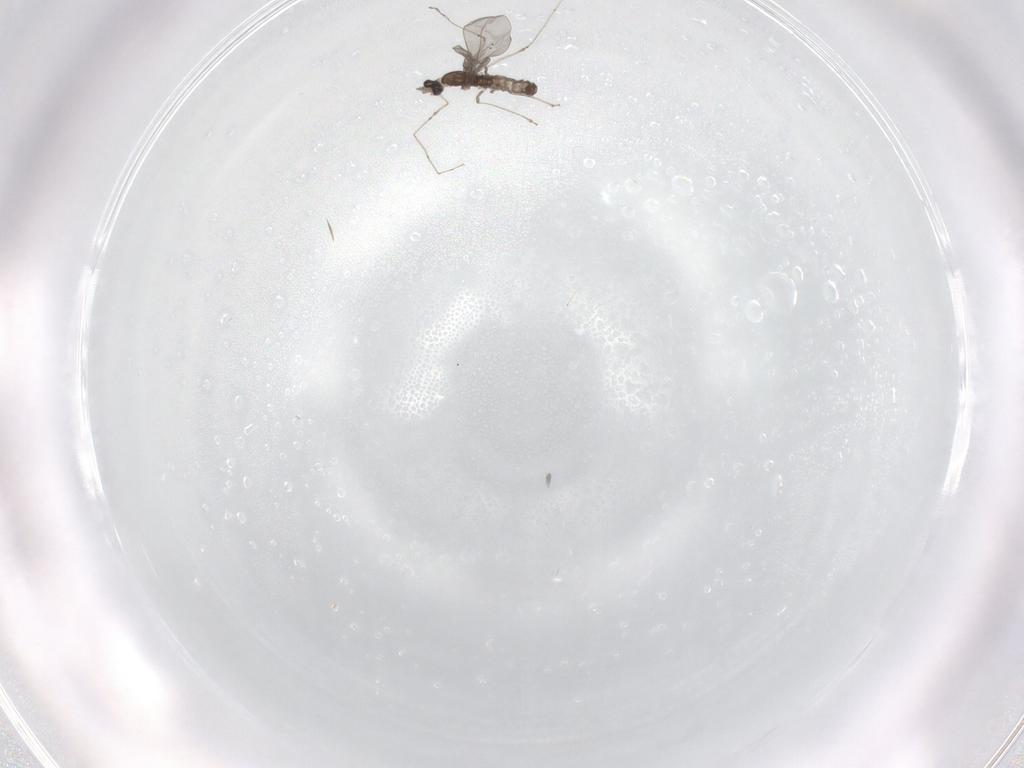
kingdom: Animalia
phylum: Arthropoda
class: Insecta
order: Diptera
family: Cecidomyiidae
